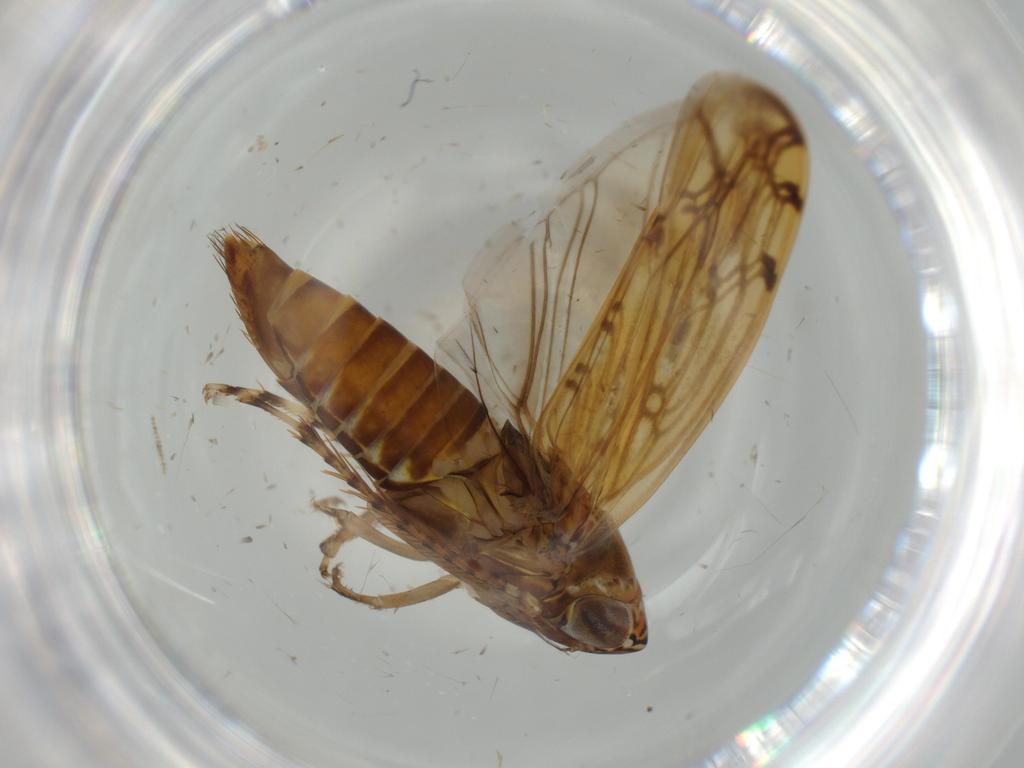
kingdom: Animalia
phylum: Arthropoda
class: Insecta
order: Hemiptera
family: Cicadellidae
